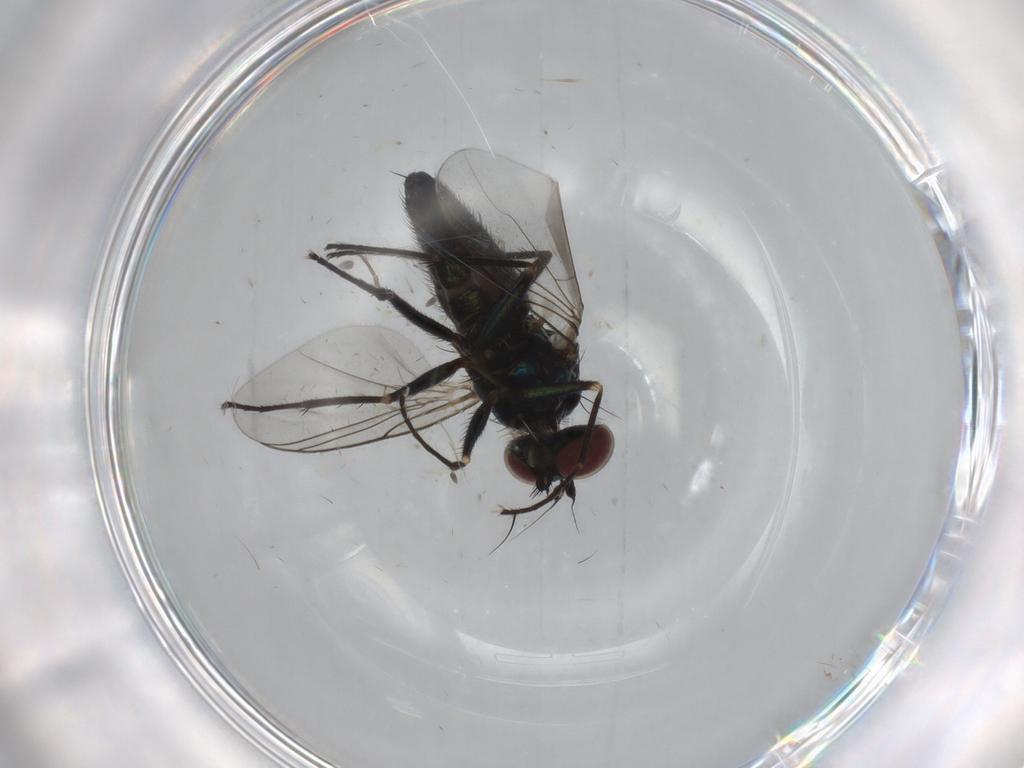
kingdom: Animalia
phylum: Arthropoda
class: Insecta
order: Diptera
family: Dolichopodidae
